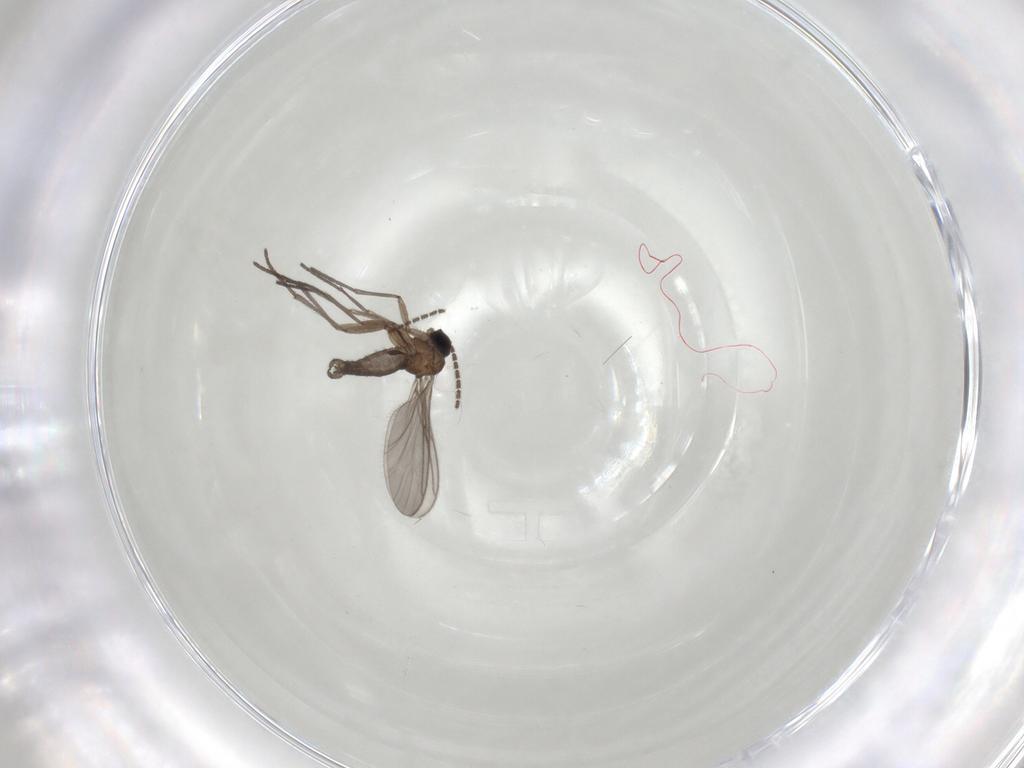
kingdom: Animalia
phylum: Arthropoda
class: Insecta
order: Diptera
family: Sciaridae
